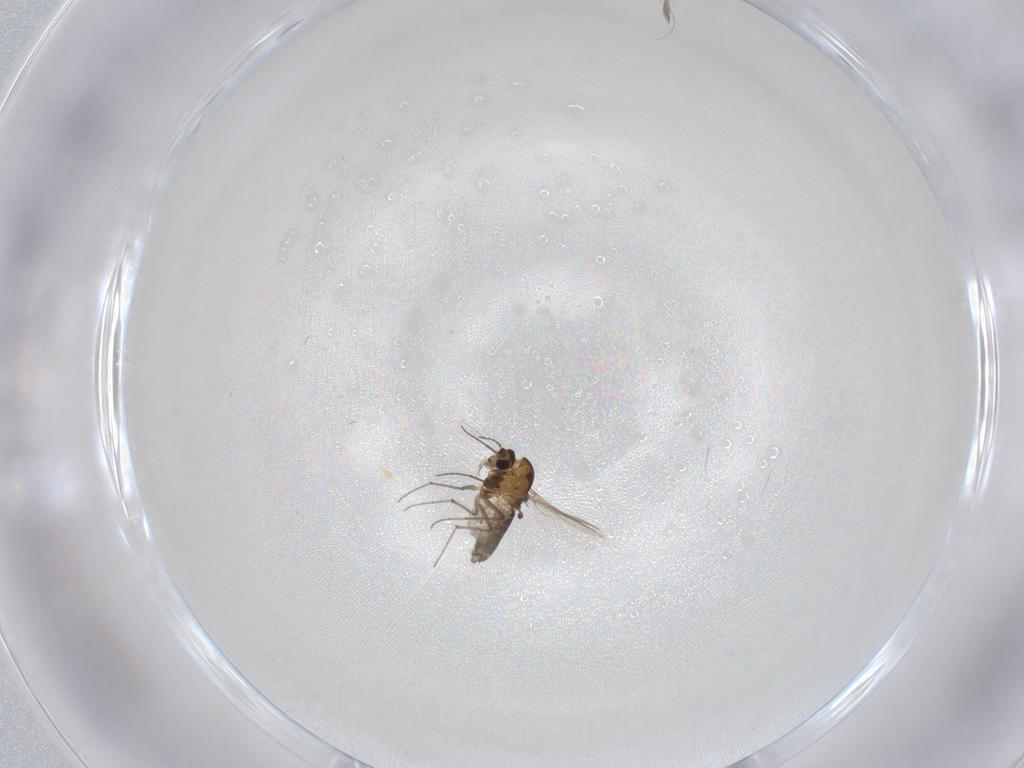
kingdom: Animalia
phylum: Arthropoda
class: Insecta
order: Diptera
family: Chironomidae
